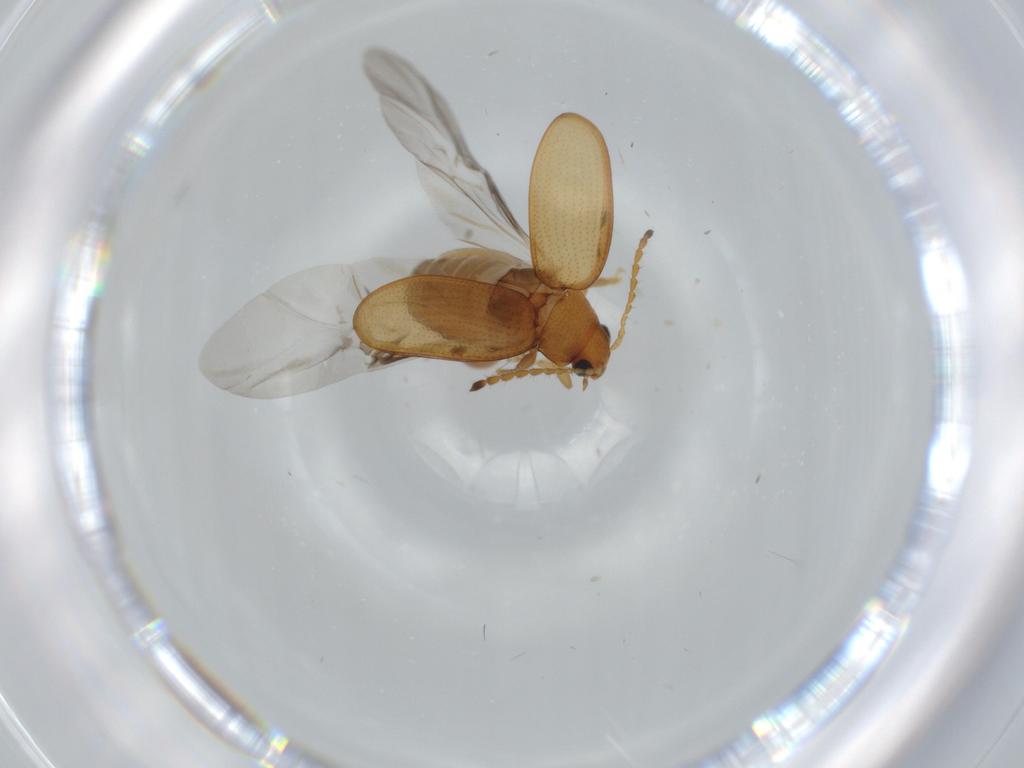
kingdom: Animalia
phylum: Arthropoda
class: Insecta
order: Coleoptera
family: Chrysomelidae
